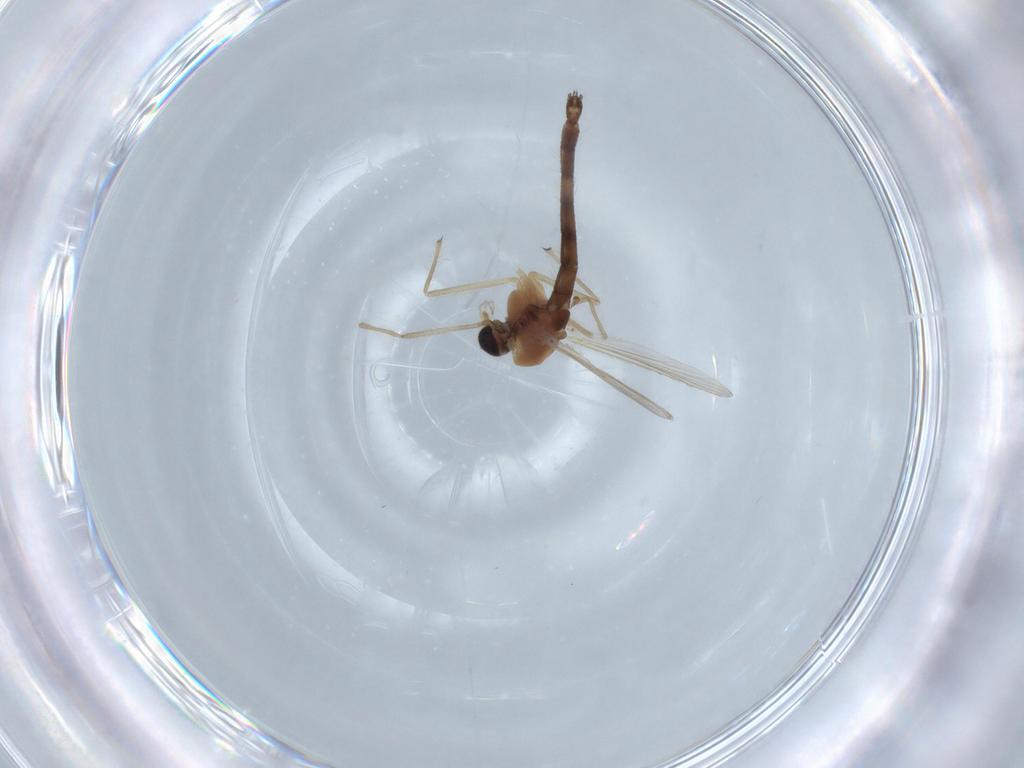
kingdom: Animalia
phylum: Arthropoda
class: Insecta
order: Diptera
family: Chironomidae
